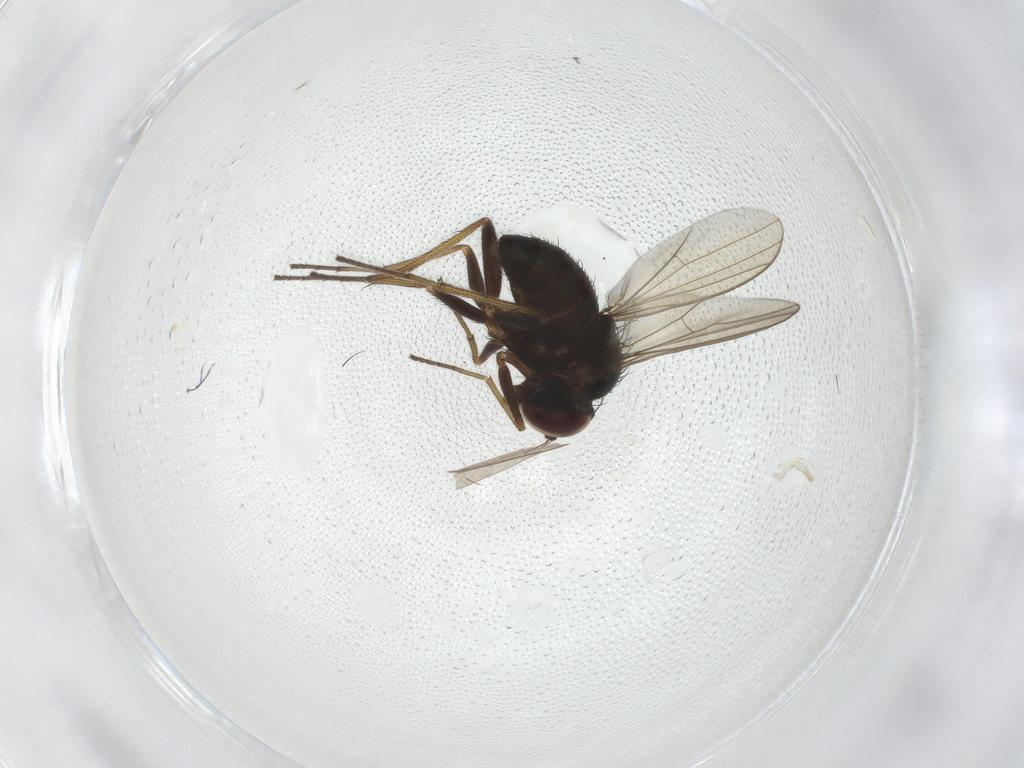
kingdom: Animalia
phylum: Arthropoda
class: Insecta
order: Diptera
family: Dolichopodidae
